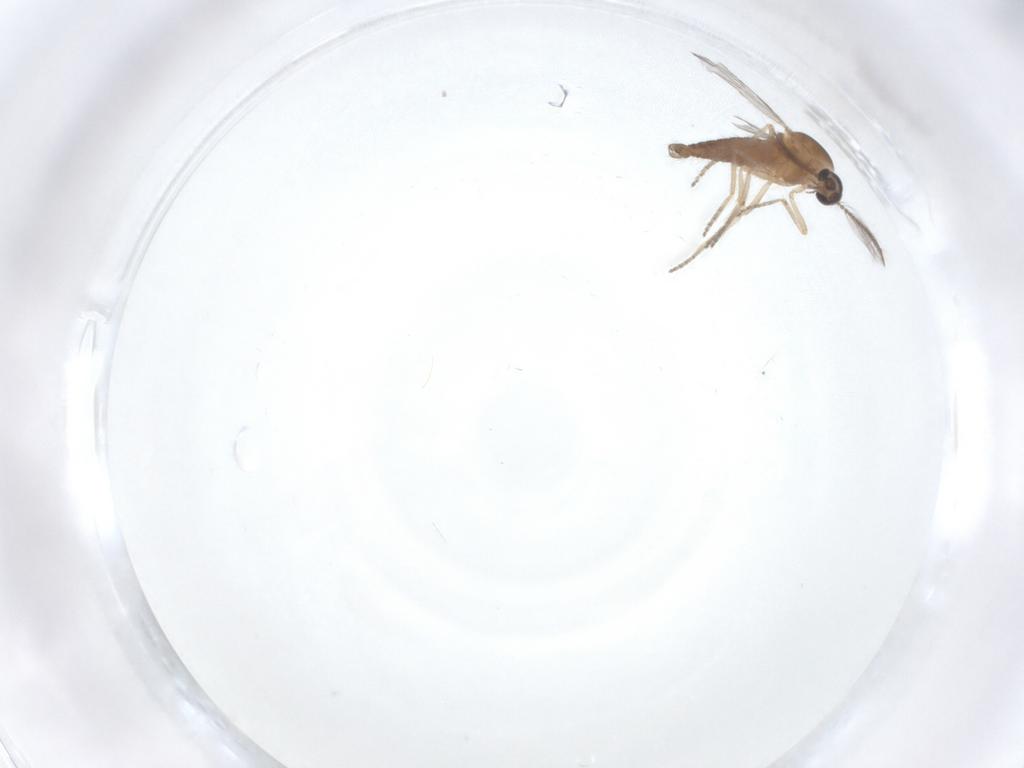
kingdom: Animalia
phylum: Arthropoda
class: Insecta
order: Diptera
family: Ceratopogonidae
